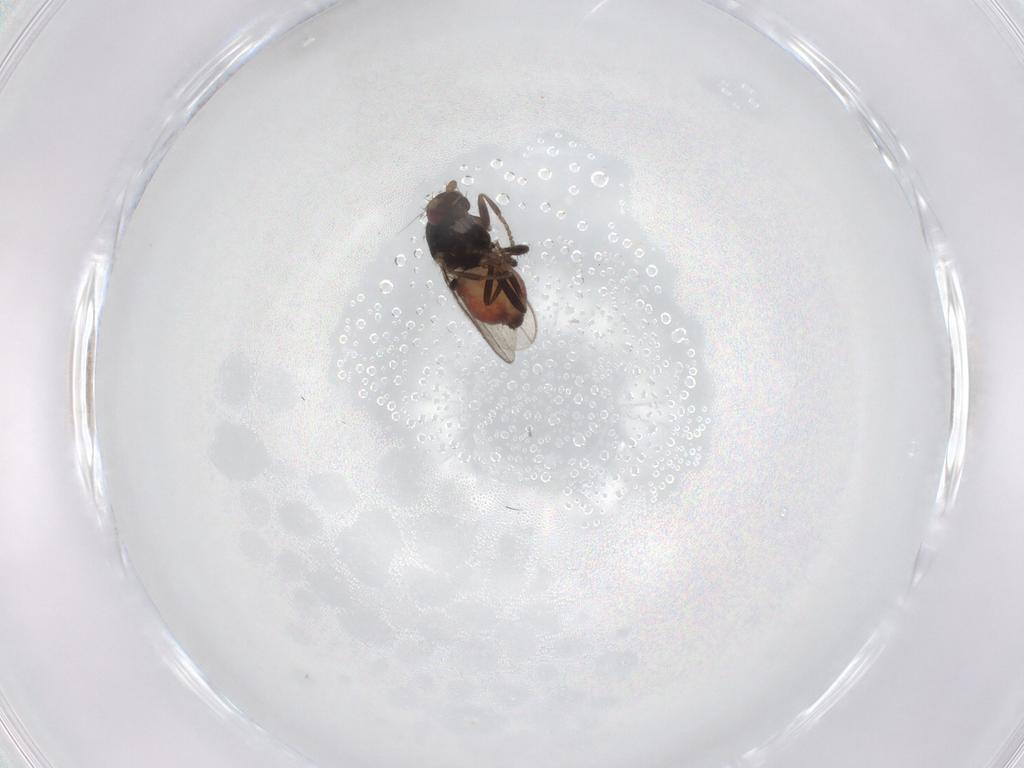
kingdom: Animalia
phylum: Arthropoda
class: Insecta
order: Diptera
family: Sphaeroceridae
